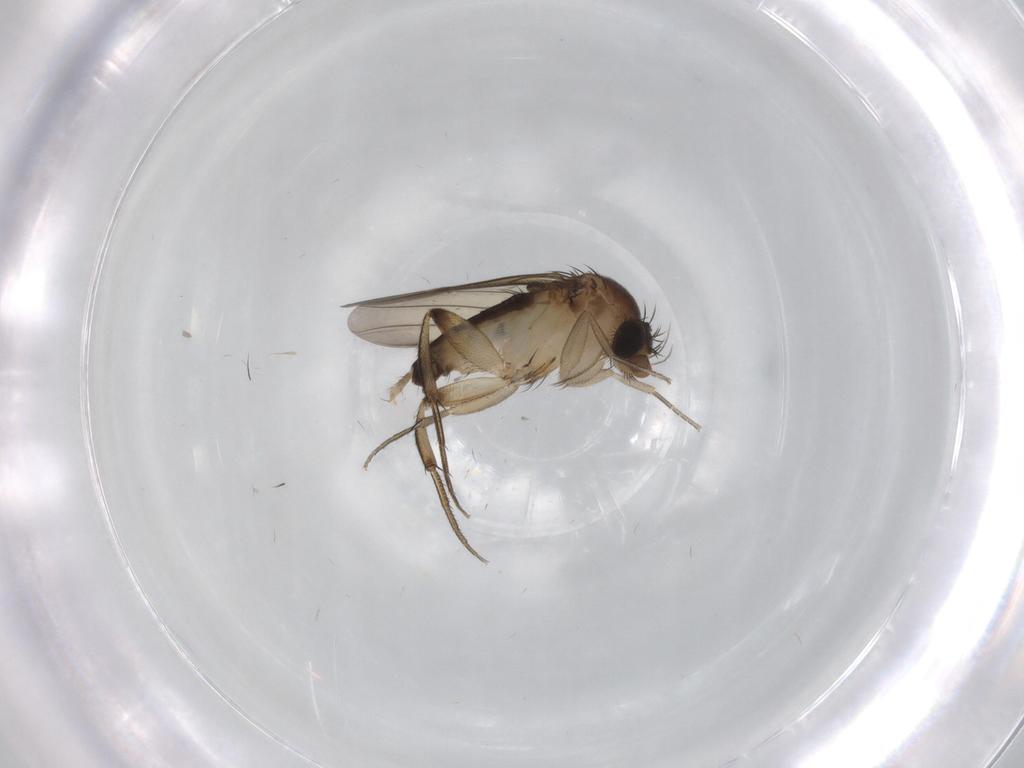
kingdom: Animalia
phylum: Arthropoda
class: Insecta
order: Diptera
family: Phoridae
